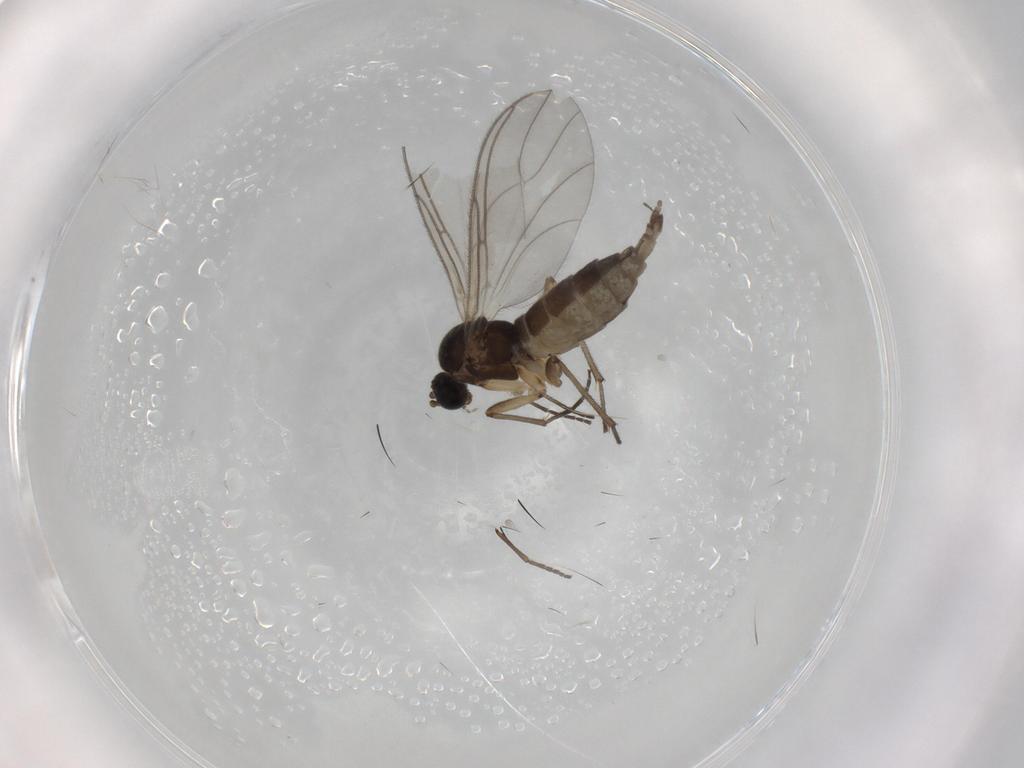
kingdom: Animalia
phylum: Arthropoda
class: Insecta
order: Diptera
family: Sciaridae
